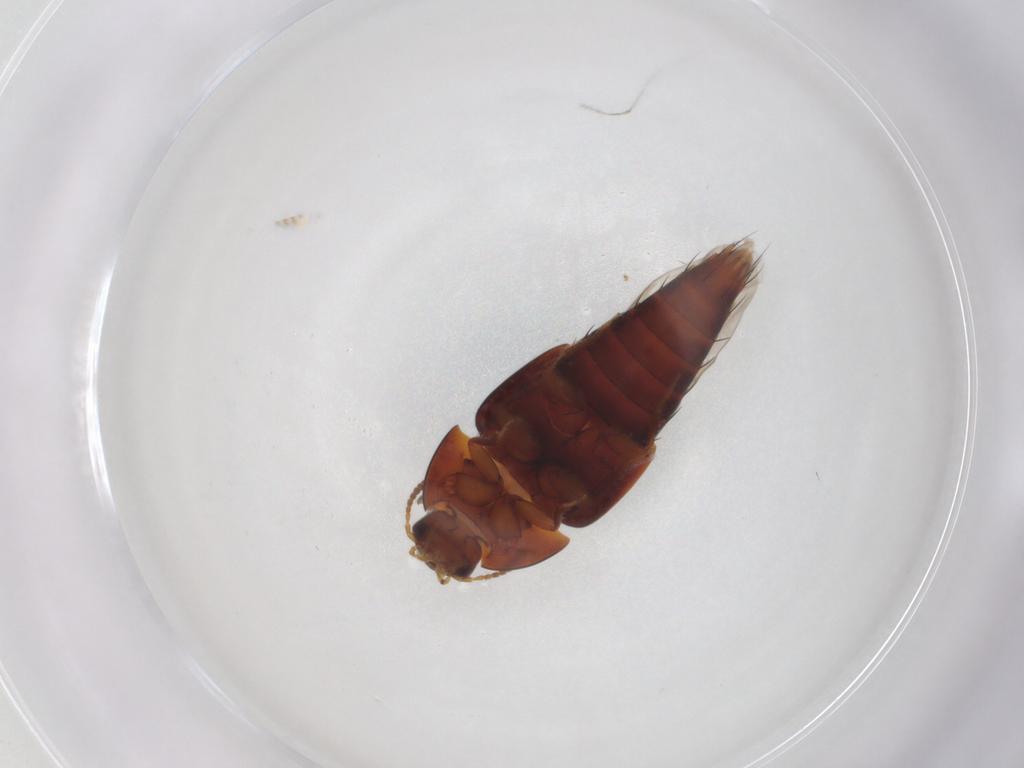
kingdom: Animalia
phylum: Arthropoda
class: Insecta
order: Coleoptera
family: Staphylinidae
